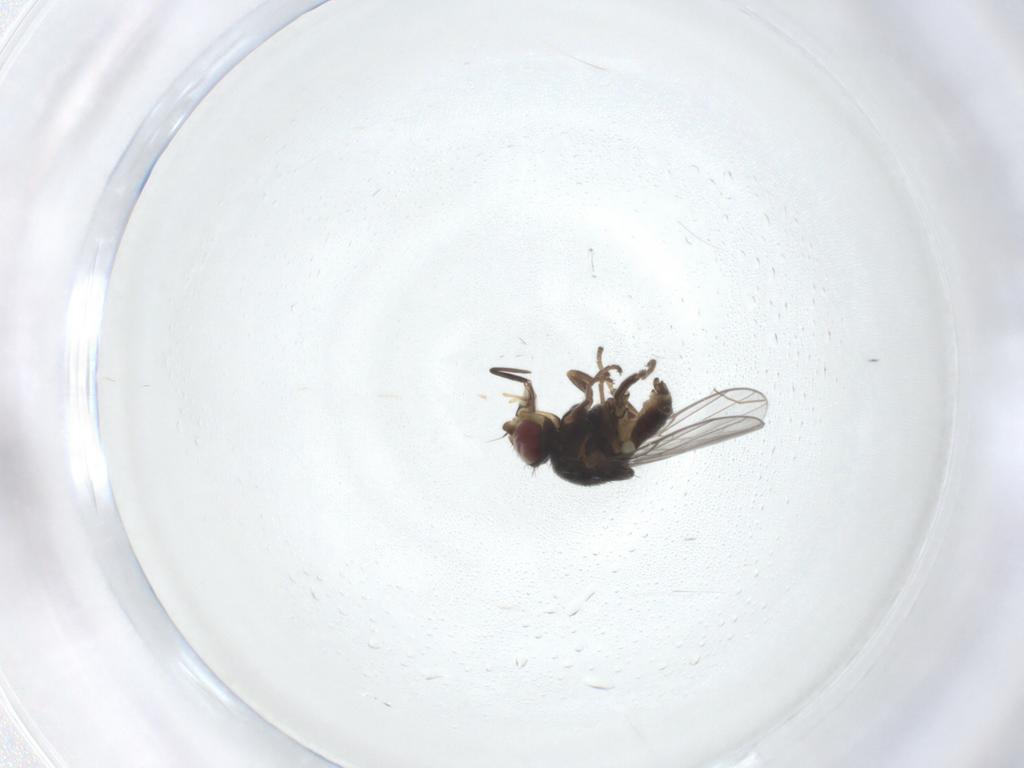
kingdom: Animalia
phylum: Arthropoda
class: Insecta
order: Diptera
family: Chloropidae
